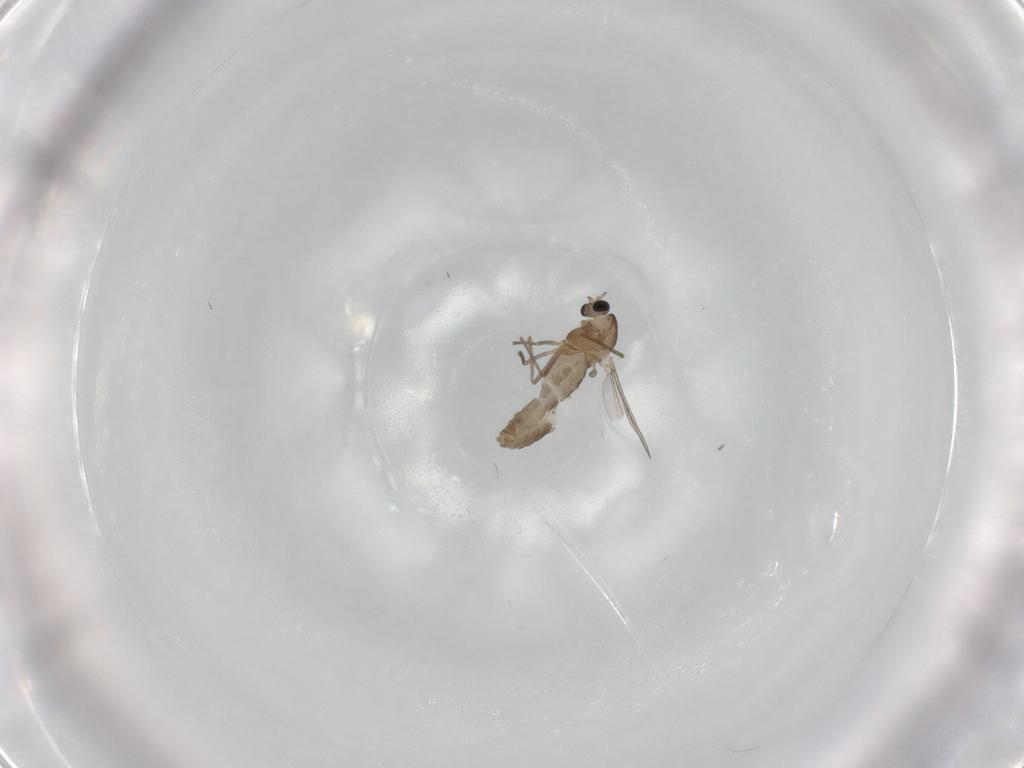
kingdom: Animalia
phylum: Arthropoda
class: Insecta
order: Diptera
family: Chironomidae
